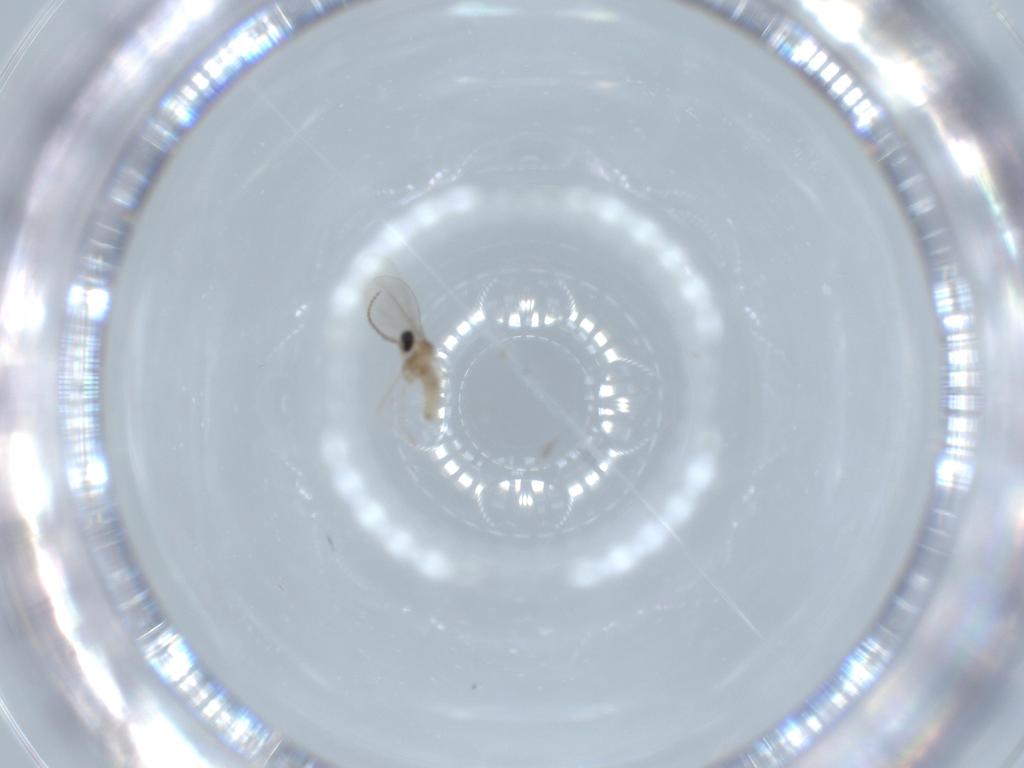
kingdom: Animalia
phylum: Arthropoda
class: Insecta
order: Diptera
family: Cecidomyiidae
